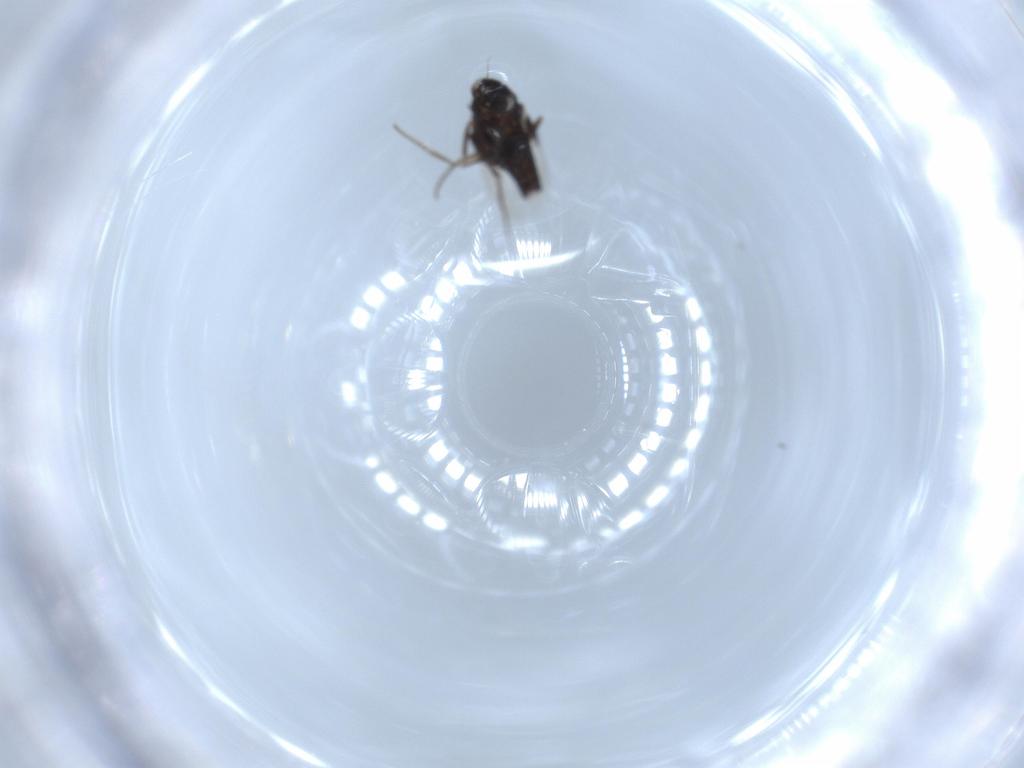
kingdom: Animalia
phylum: Arthropoda
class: Insecta
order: Diptera
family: Phoridae
